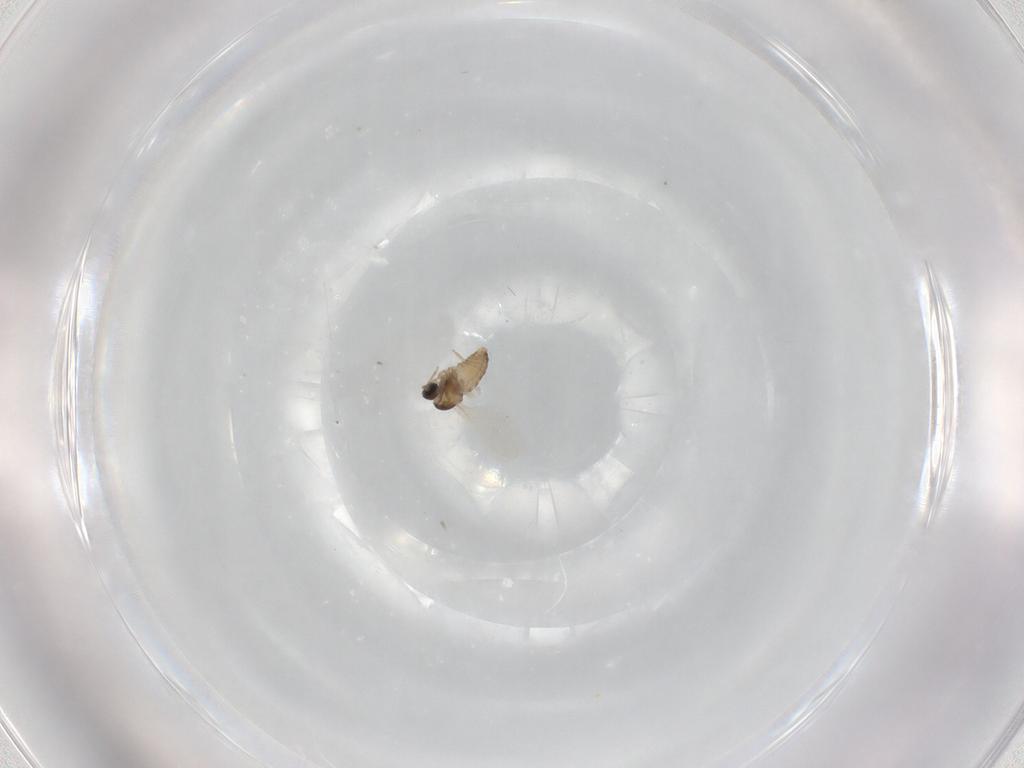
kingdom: Animalia
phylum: Arthropoda
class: Insecta
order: Diptera
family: Cecidomyiidae
